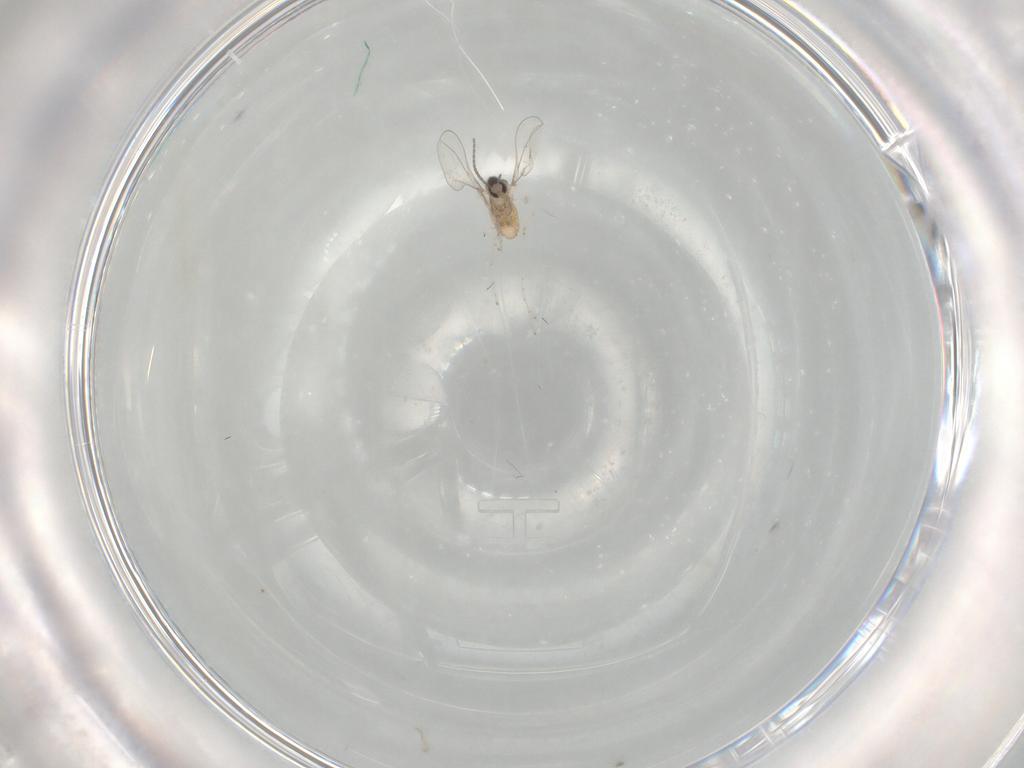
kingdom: Animalia
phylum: Arthropoda
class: Insecta
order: Diptera
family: Cecidomyiidae
